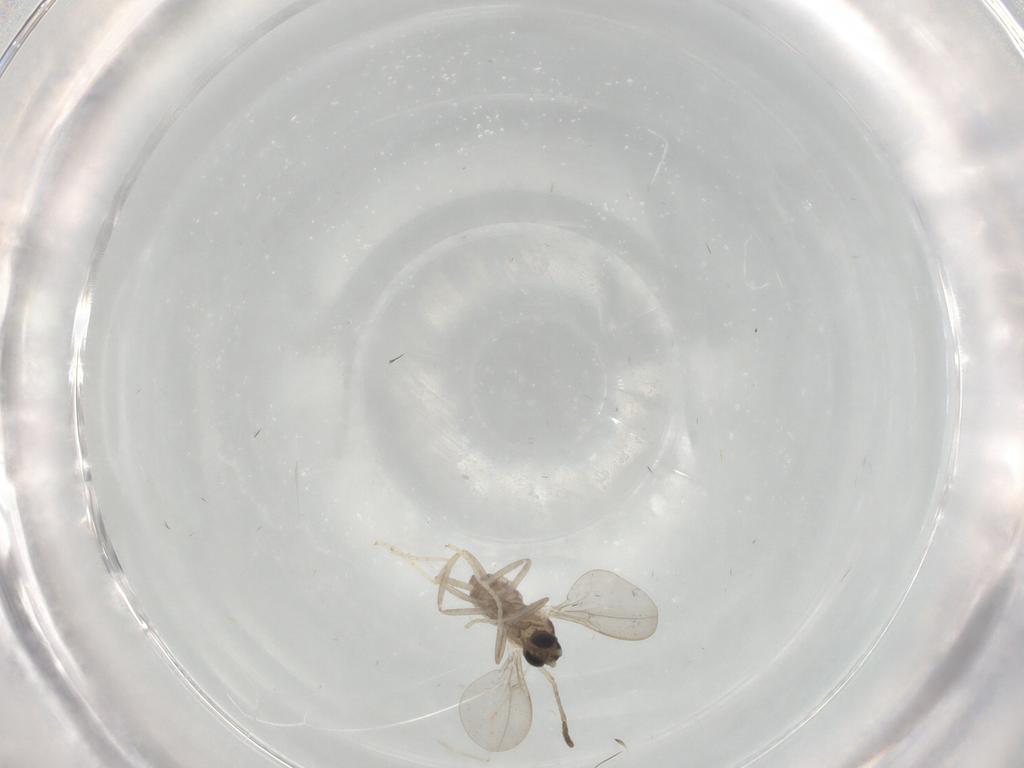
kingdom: Animalia
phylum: Arthropoda
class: Insecta
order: Diptera
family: Cecidomyiidae
